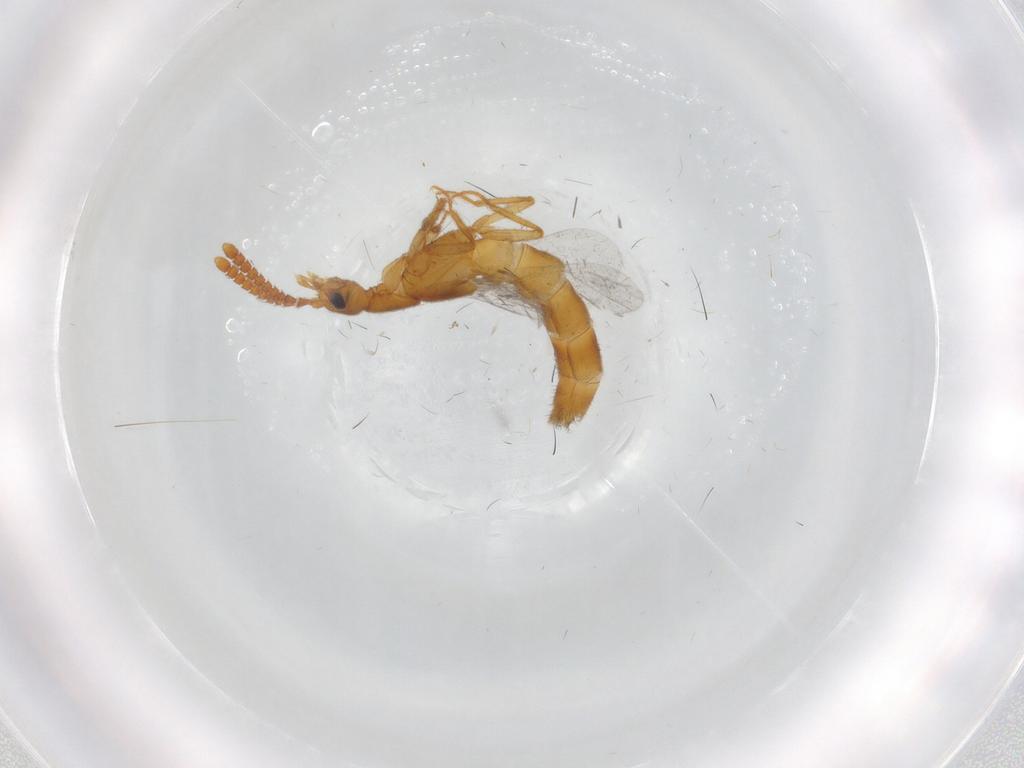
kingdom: Animalia
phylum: Arthropoda
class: Insecta
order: Coleoptera
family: Staphylinidae
